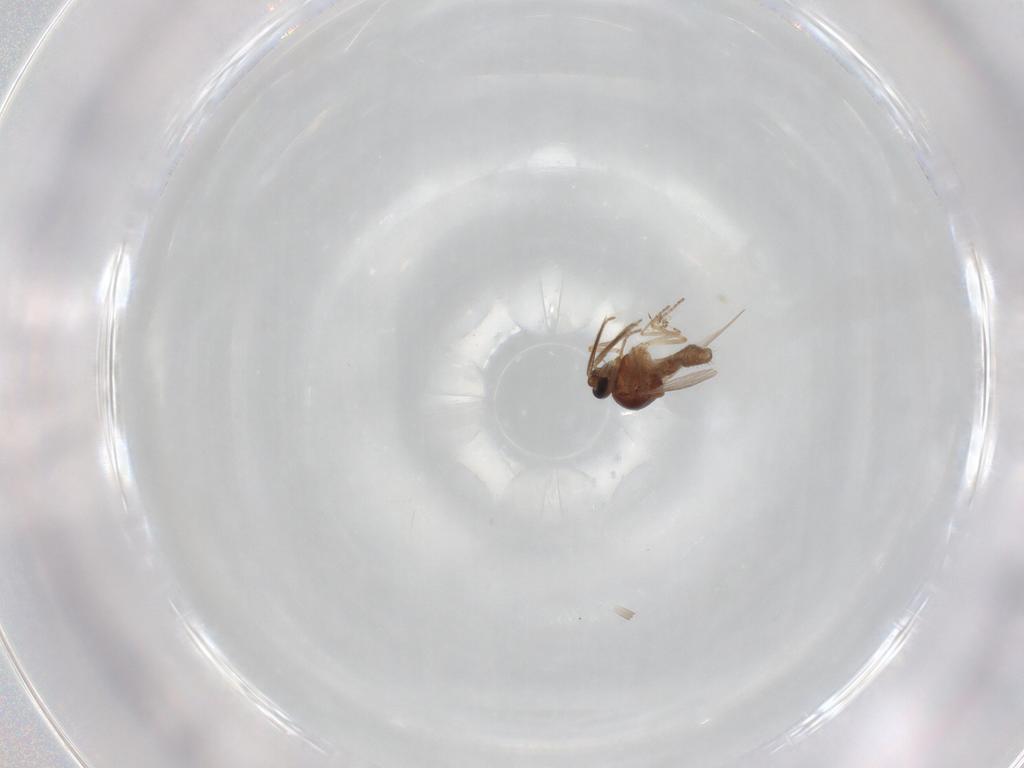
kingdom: Animalia
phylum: Arthropoda
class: Insecta
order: Diptera
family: Ceratopogonidae
